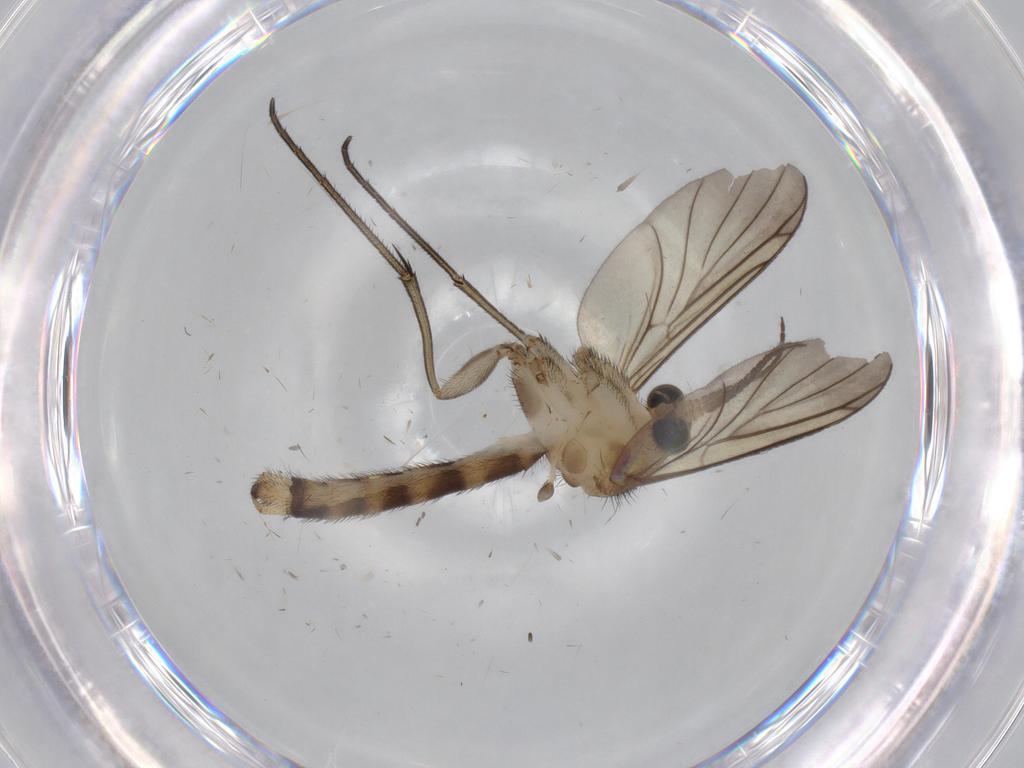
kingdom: Animalia
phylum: Arthropoda
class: Insecta
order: Diptera
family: Sciaridae
